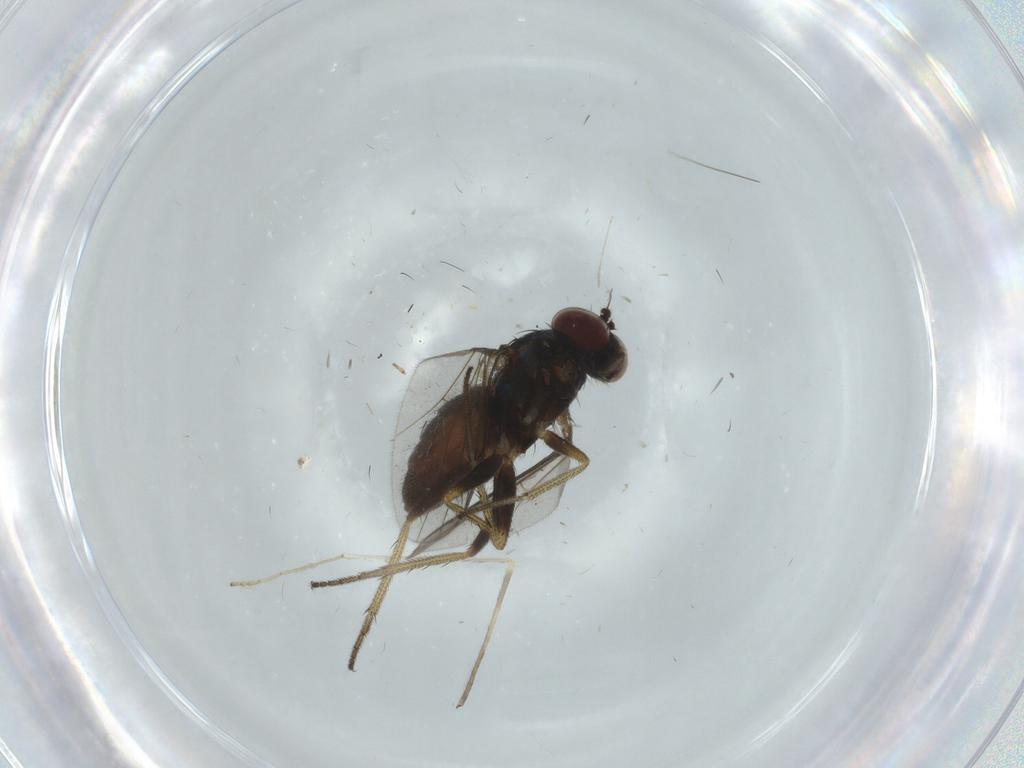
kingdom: Animalia
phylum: Arthropoda
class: Insecta
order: Diptera
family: Dolichopodidae
